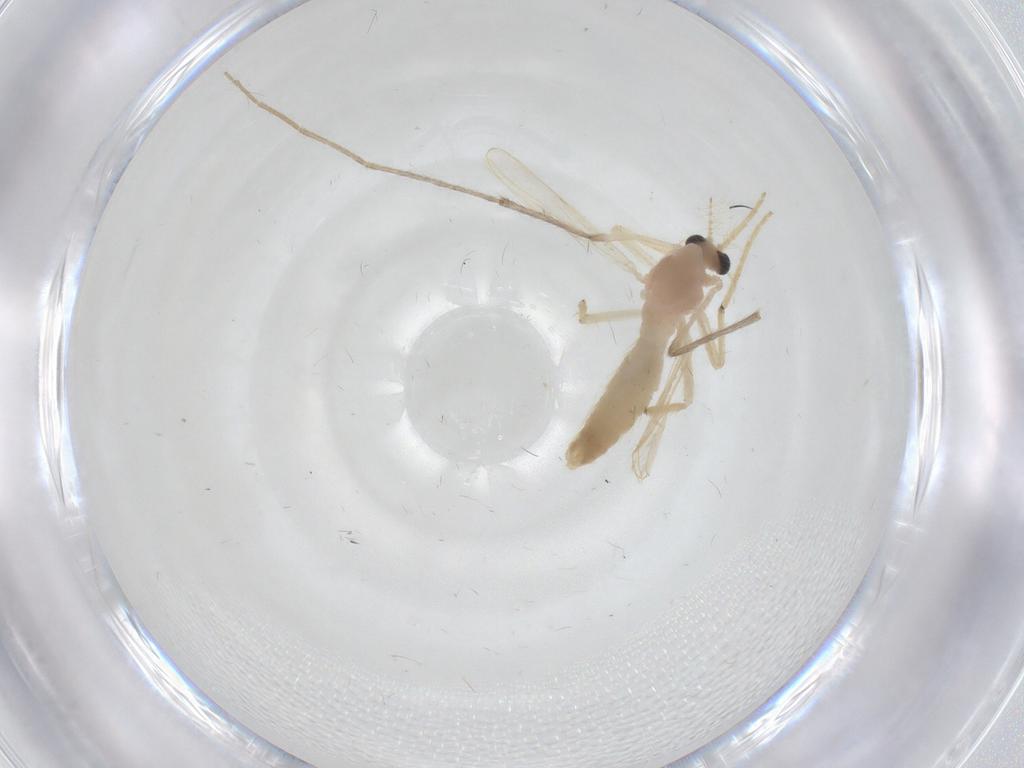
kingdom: Animalia
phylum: Arthropoda
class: Insecta
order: Diptera
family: Chironomidae
